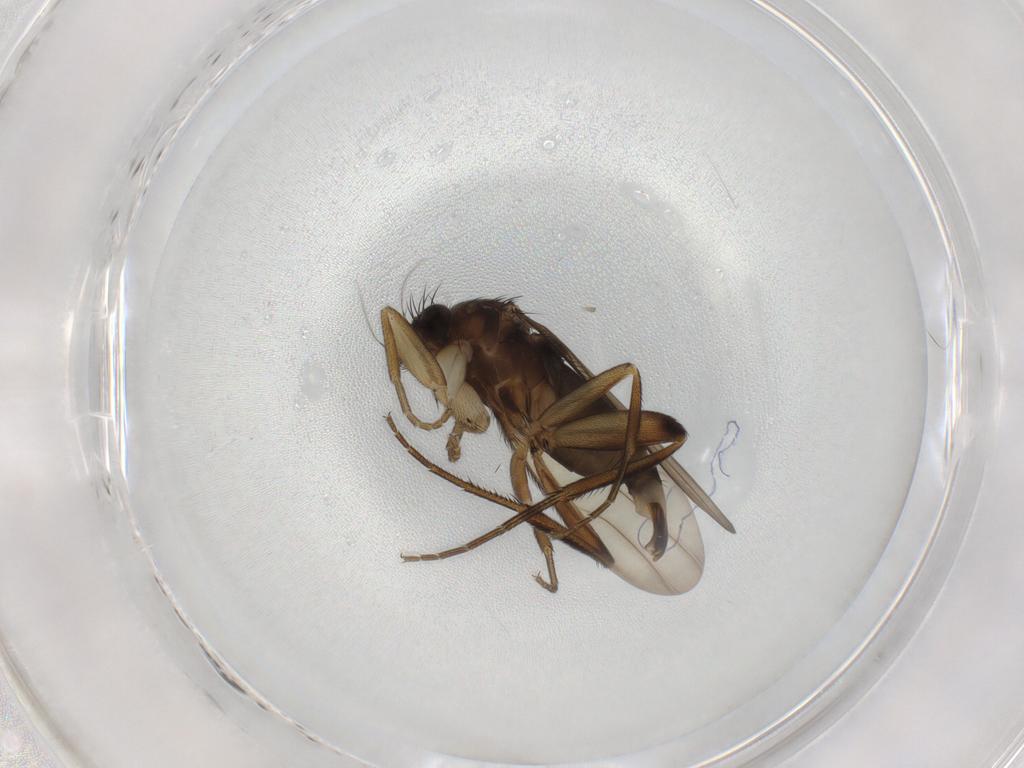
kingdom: Animalia
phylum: Arthropoda
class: Insecta
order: Diptera
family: Phoridae
